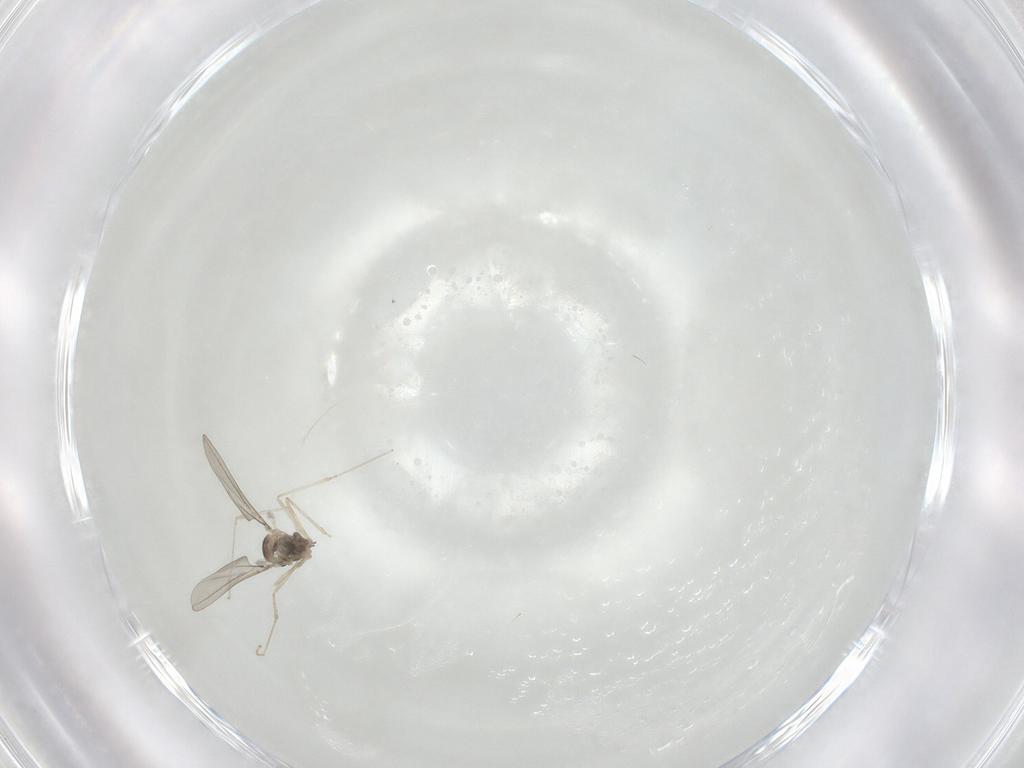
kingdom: Animalia
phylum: Arthropoda
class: Insecta
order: Diptera
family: Cecidomyiidae
